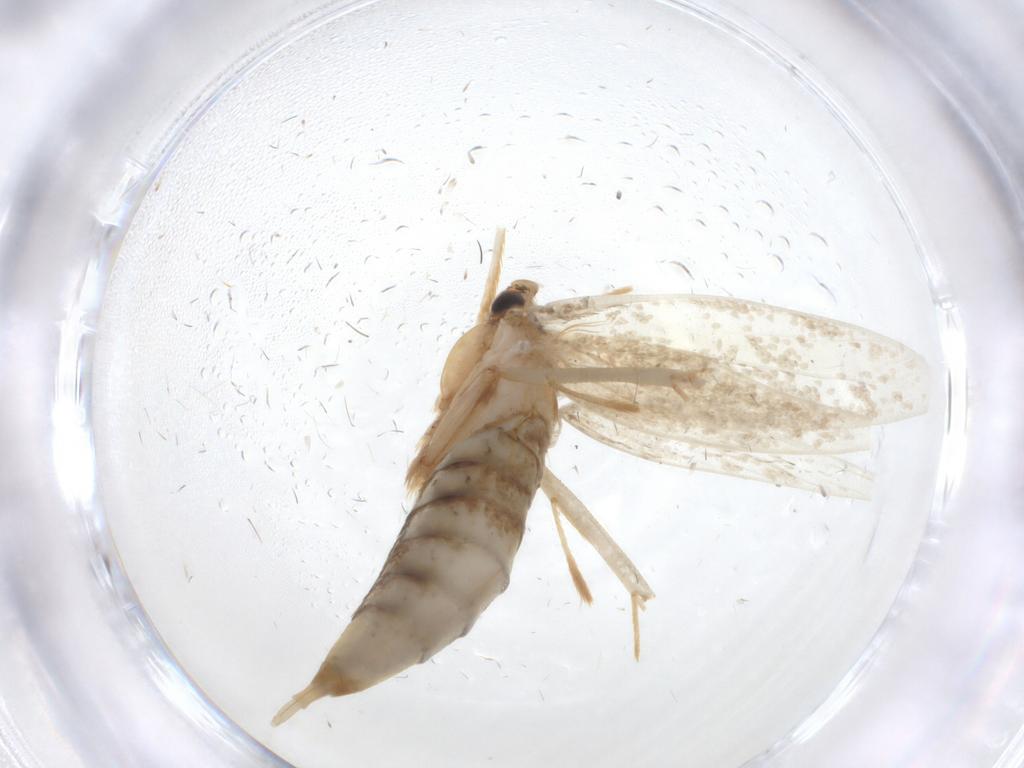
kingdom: Animalia
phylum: Arthropoda
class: Insecta
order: Lepidoptera
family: Tineidae
